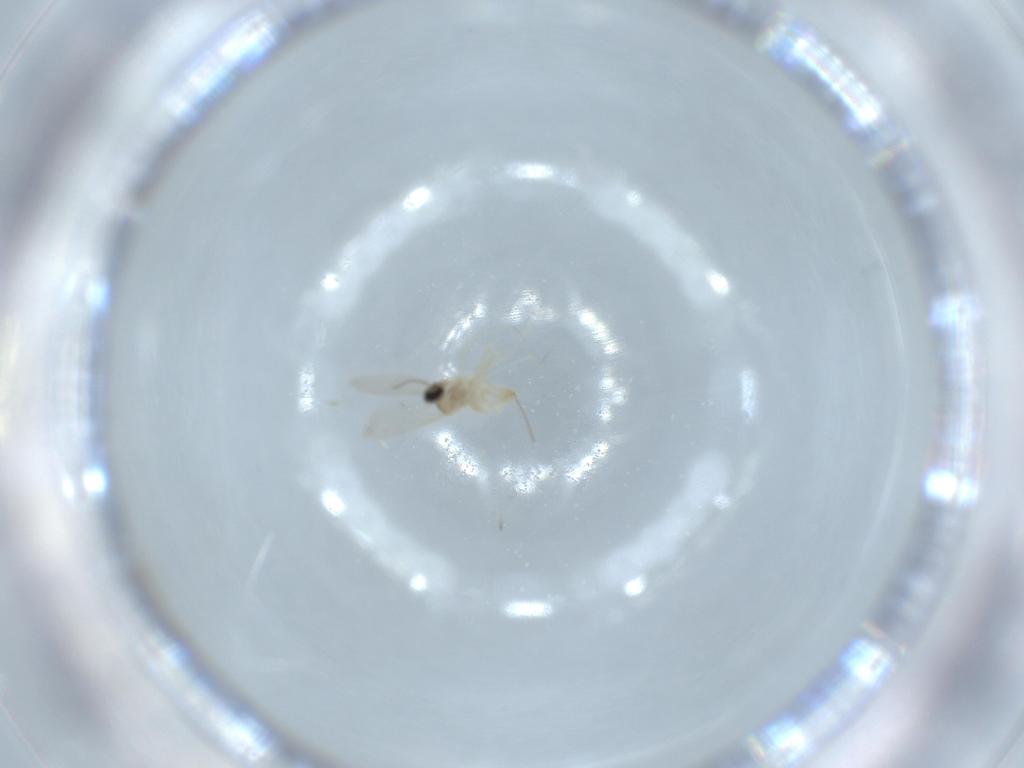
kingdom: Animalia
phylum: Arthropoda
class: Insecta
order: Diptera
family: Cecidomyiidae
